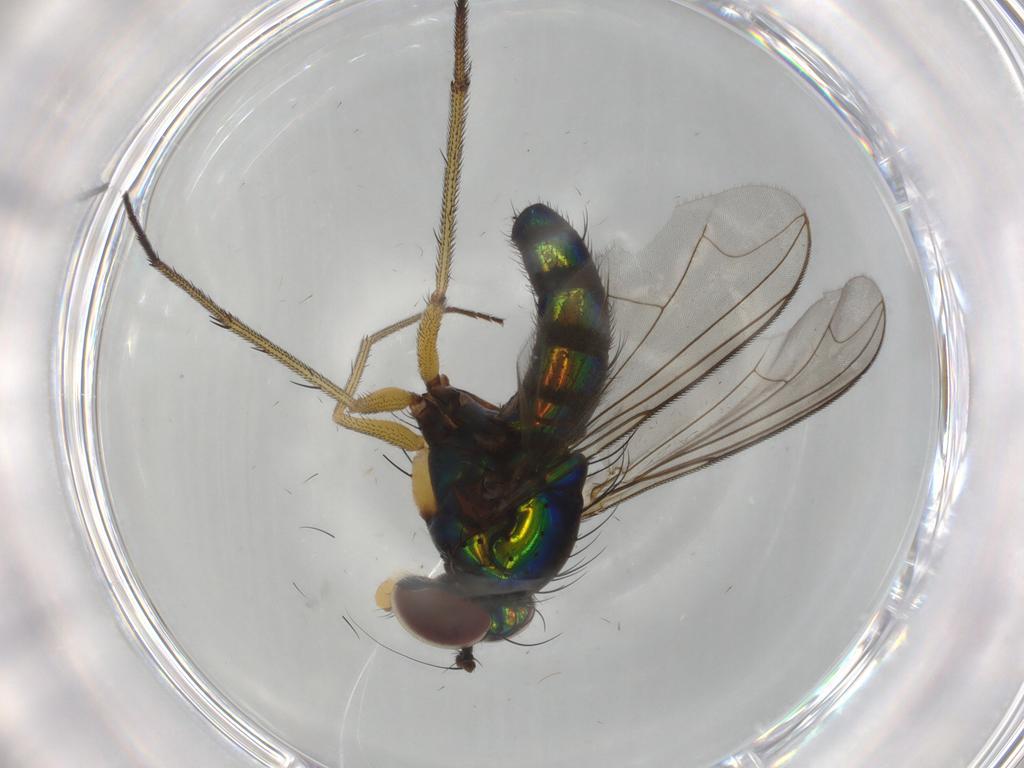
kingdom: Animalia
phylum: Arthropoda
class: Insecta
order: Diptera
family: Dolichopodidae
